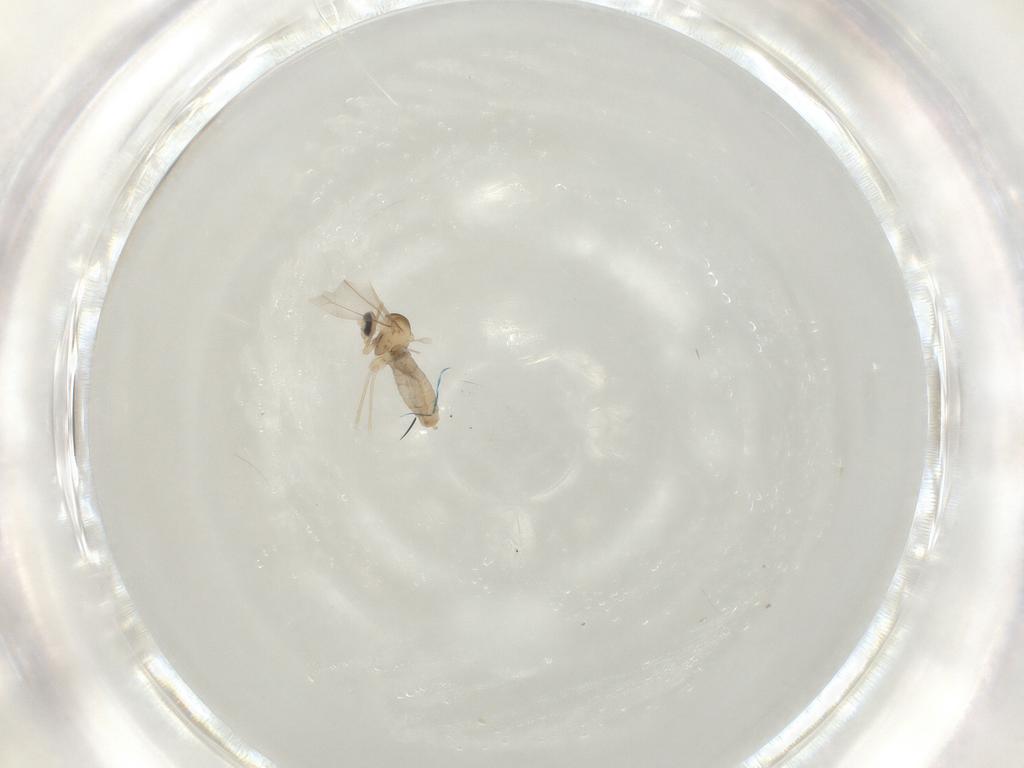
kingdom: Animalia
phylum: Arthropoda
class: Insecta
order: Diptera
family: Cecidomyiidae
